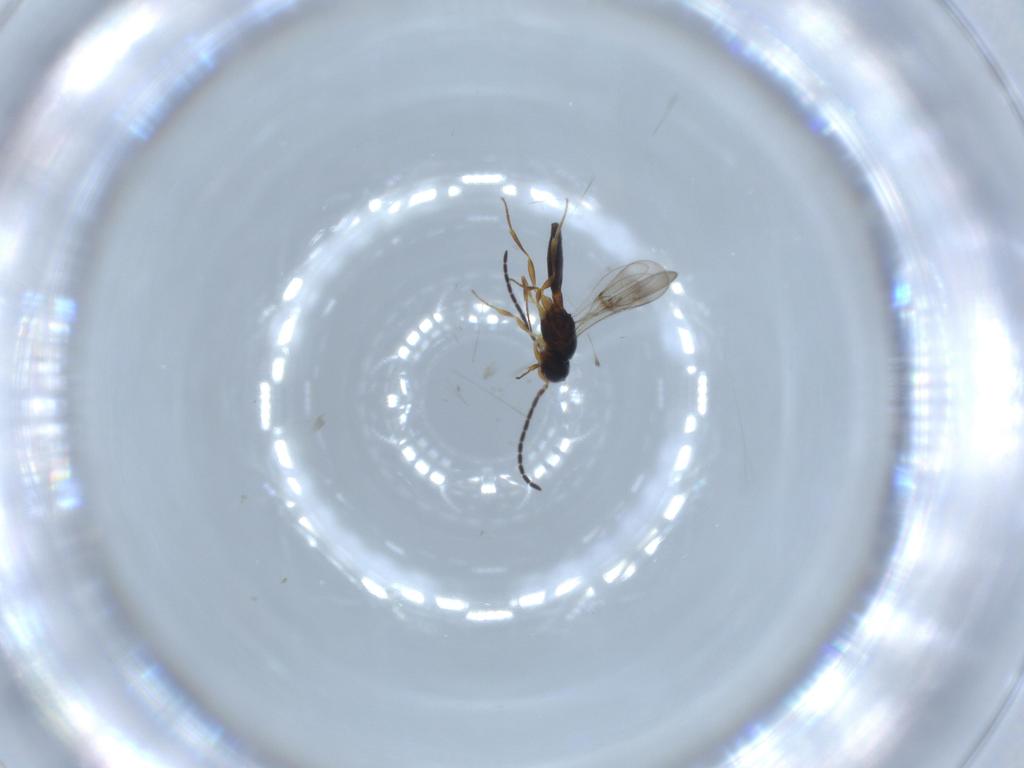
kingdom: Animalia
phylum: Arthropoda
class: Insecta
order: Hymenoptera
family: Scelionidae
